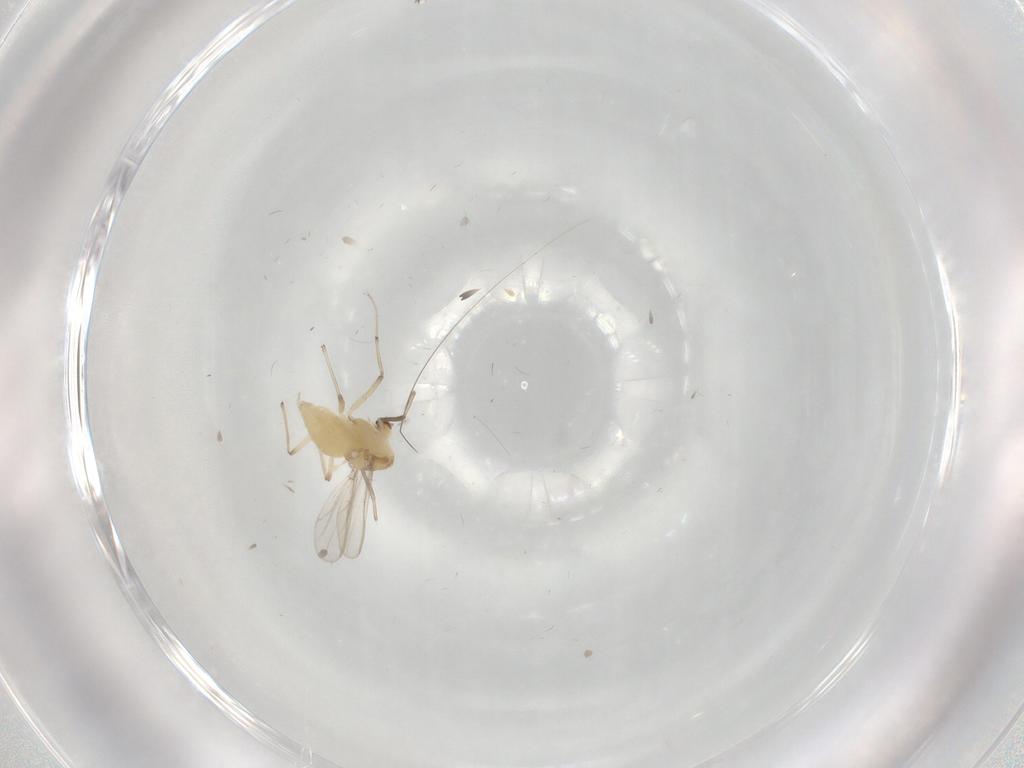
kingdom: Animalia
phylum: Arthropoda
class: Insecta
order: Diptera
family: Chironomidae
